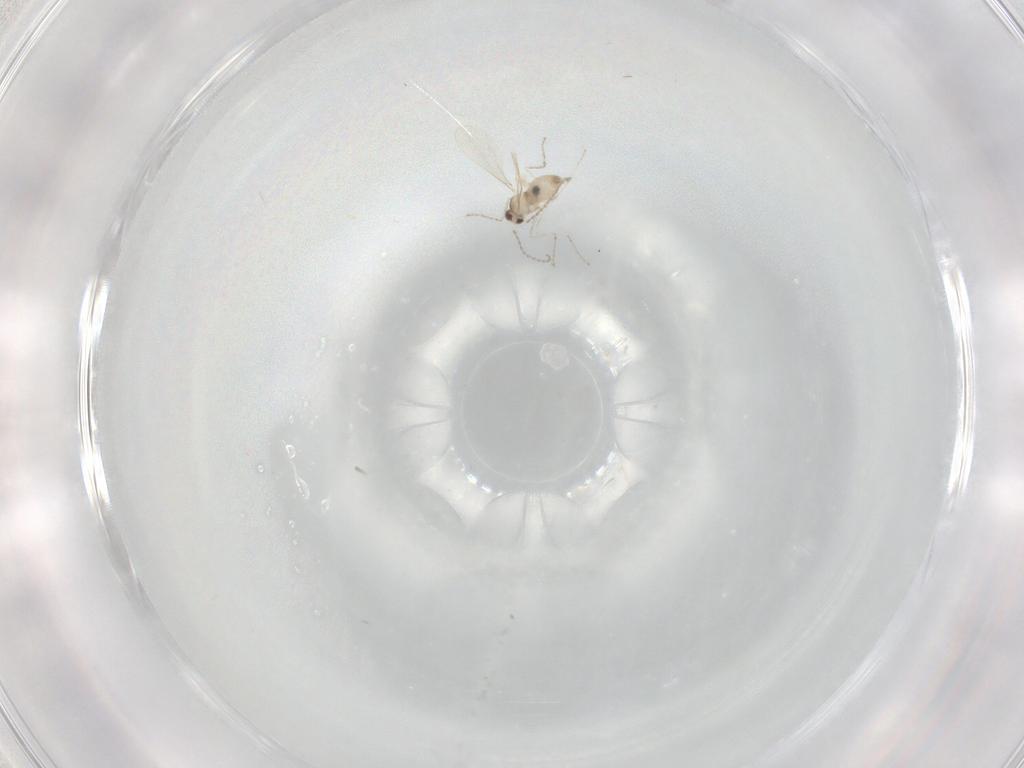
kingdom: Animalia
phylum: Arthropoda
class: Insecta
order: Diptera
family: Tipulidae
